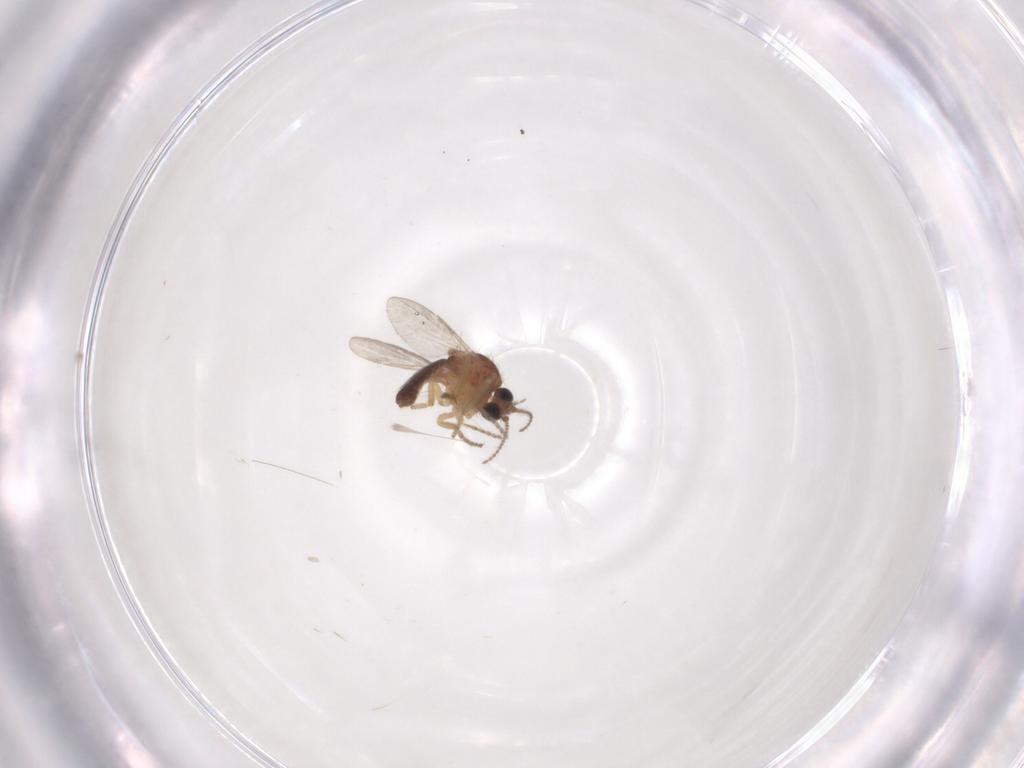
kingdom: Animalia
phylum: Arthropoda
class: Insecta
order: Diptera
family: Ceratopogonidae
